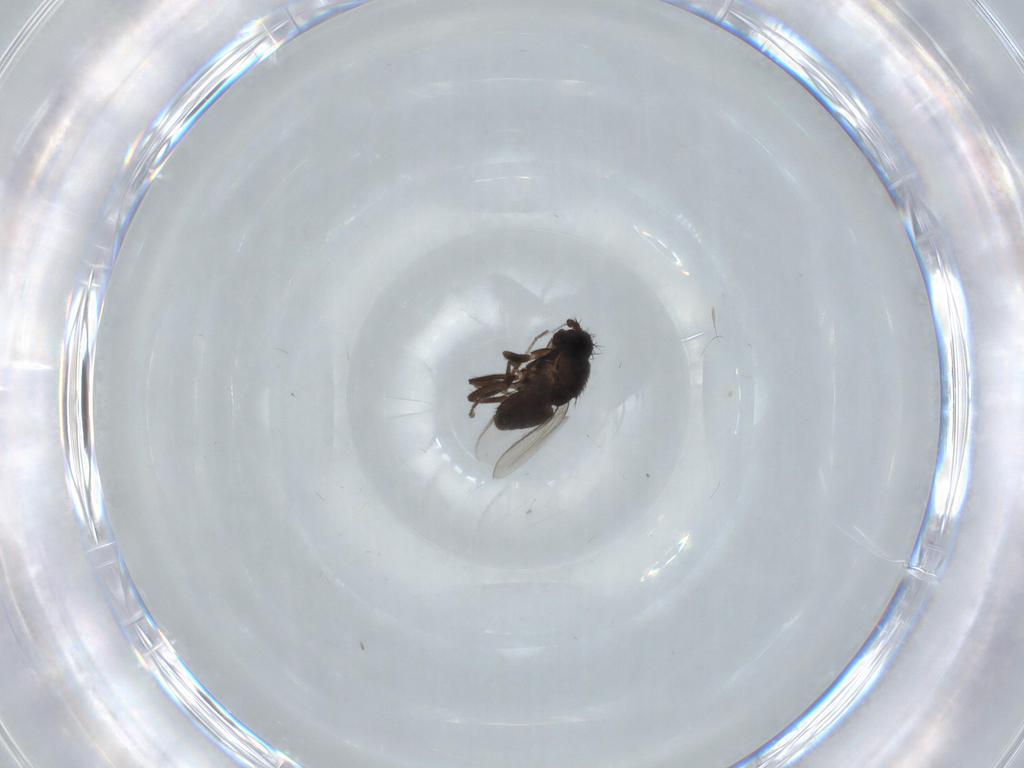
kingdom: Animalia
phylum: Arthropoda
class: Insecta
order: Diptera
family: Sphaeroceridae
